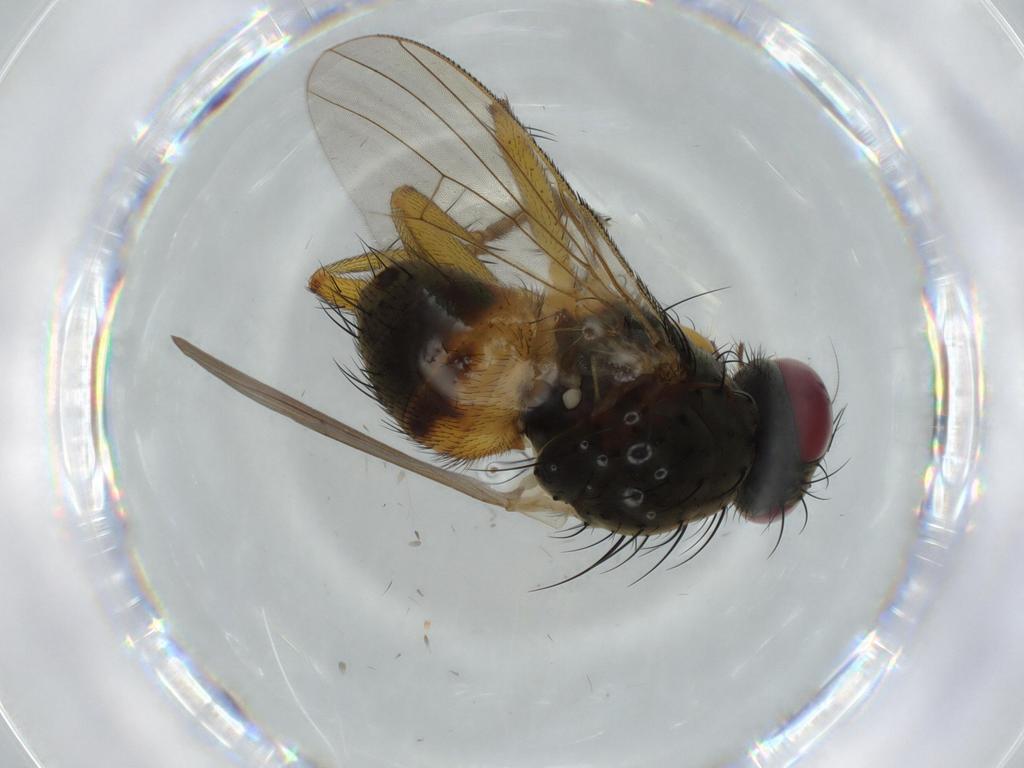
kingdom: Animalia
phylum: Arthropoda
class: Insecta
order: Diptera
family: Muscidae
